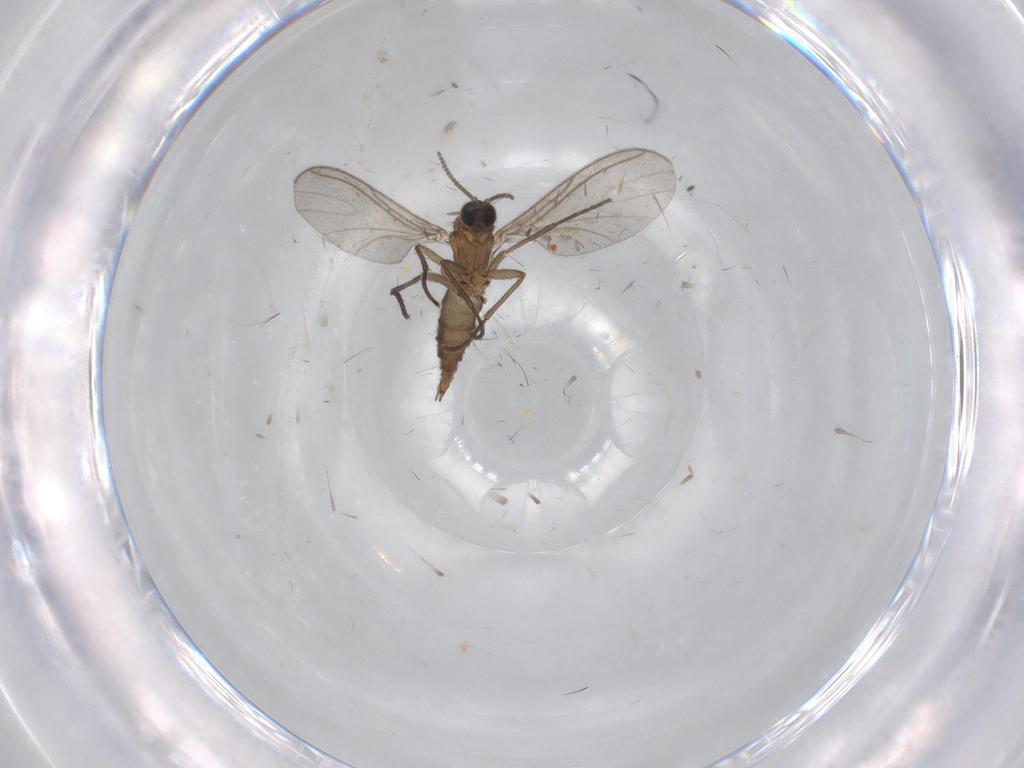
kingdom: Animalia
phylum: Arthropoda
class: Insecta
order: Diptera
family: Sciaridae
